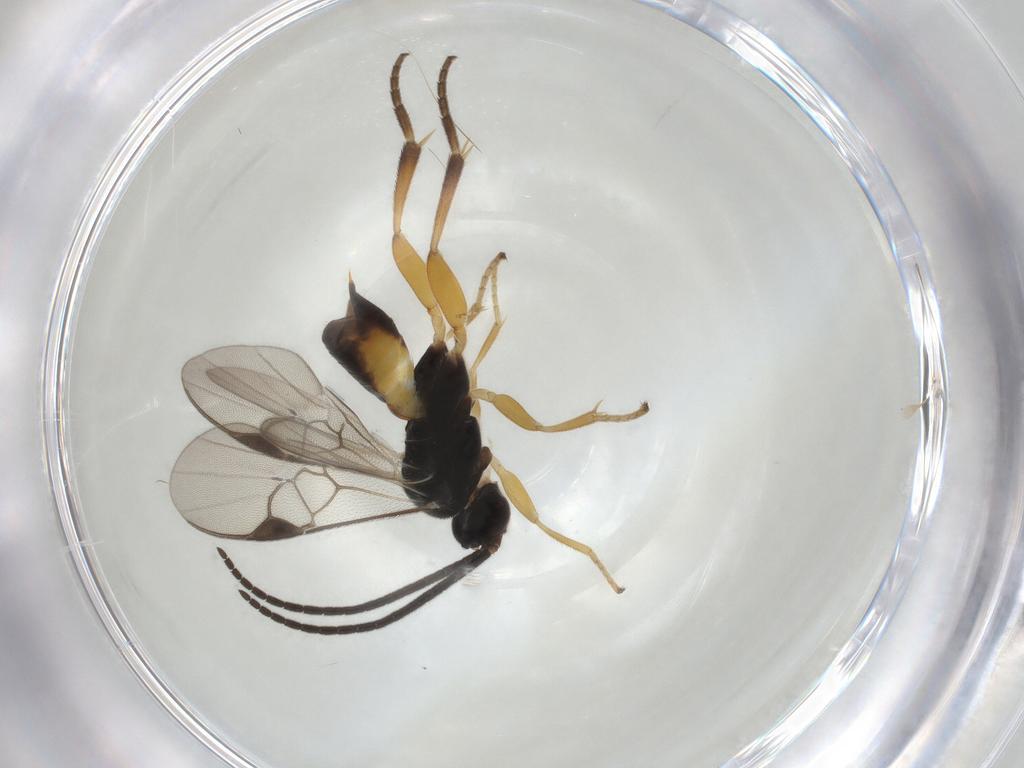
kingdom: Animalia
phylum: Arthropoda
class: Insecta
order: Hymenoptera
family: Braconidae
